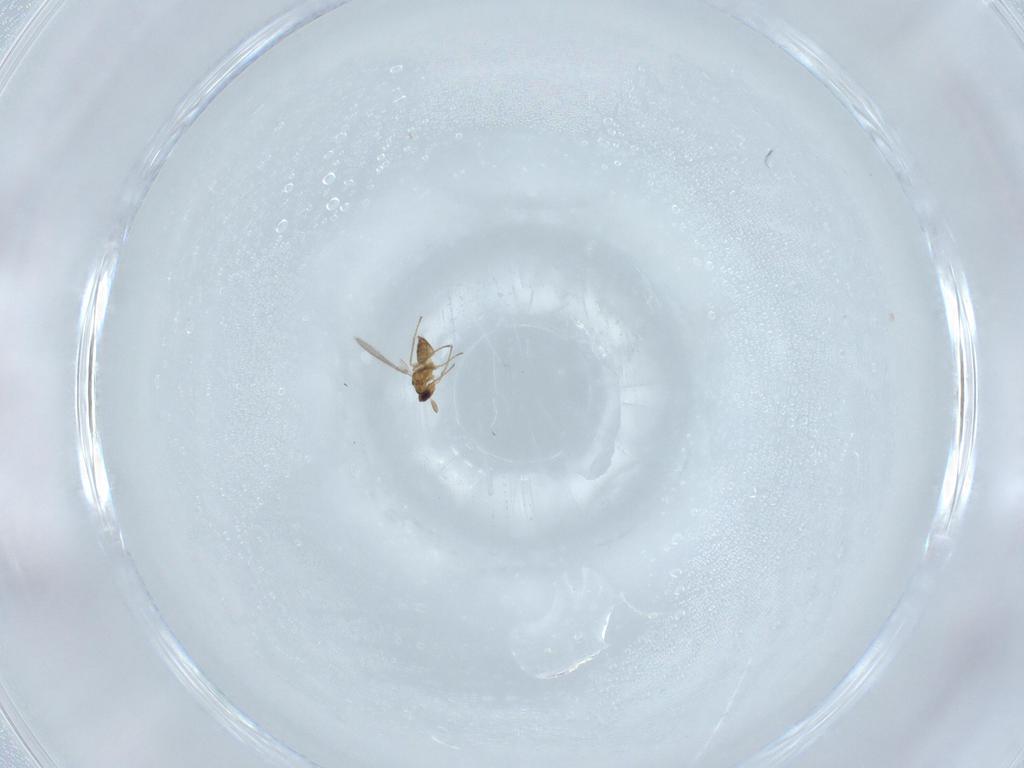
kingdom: Animalia
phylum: Arthropoda
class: Insecta
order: Hymenoptera
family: Mymaridae
